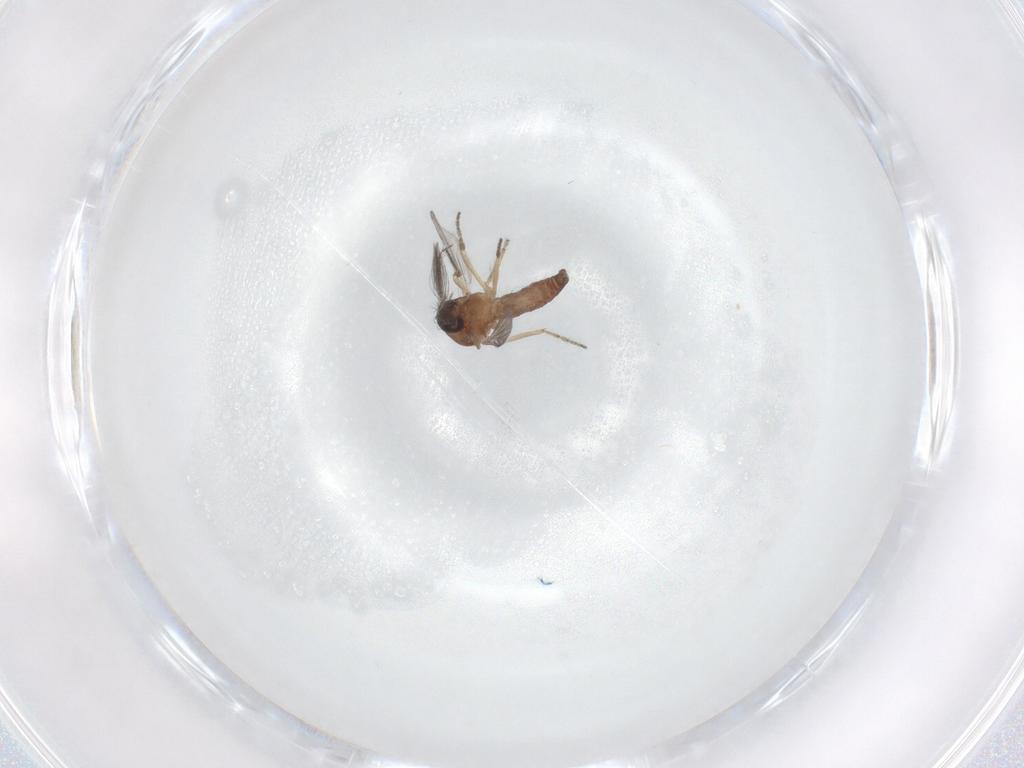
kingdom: Animalia
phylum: Arthropoda
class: Insecta
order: Diptera
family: Ceratopogonidae
